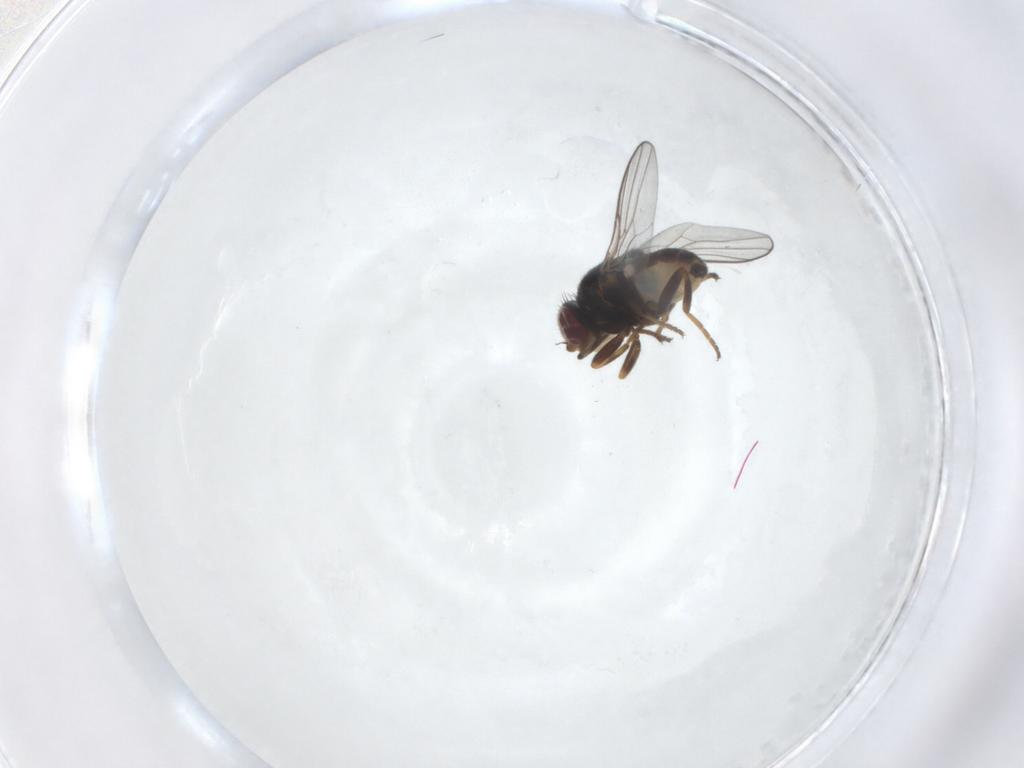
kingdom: Animalia
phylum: Arthropoda
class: Insecta
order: Diptera
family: Chloropidae
